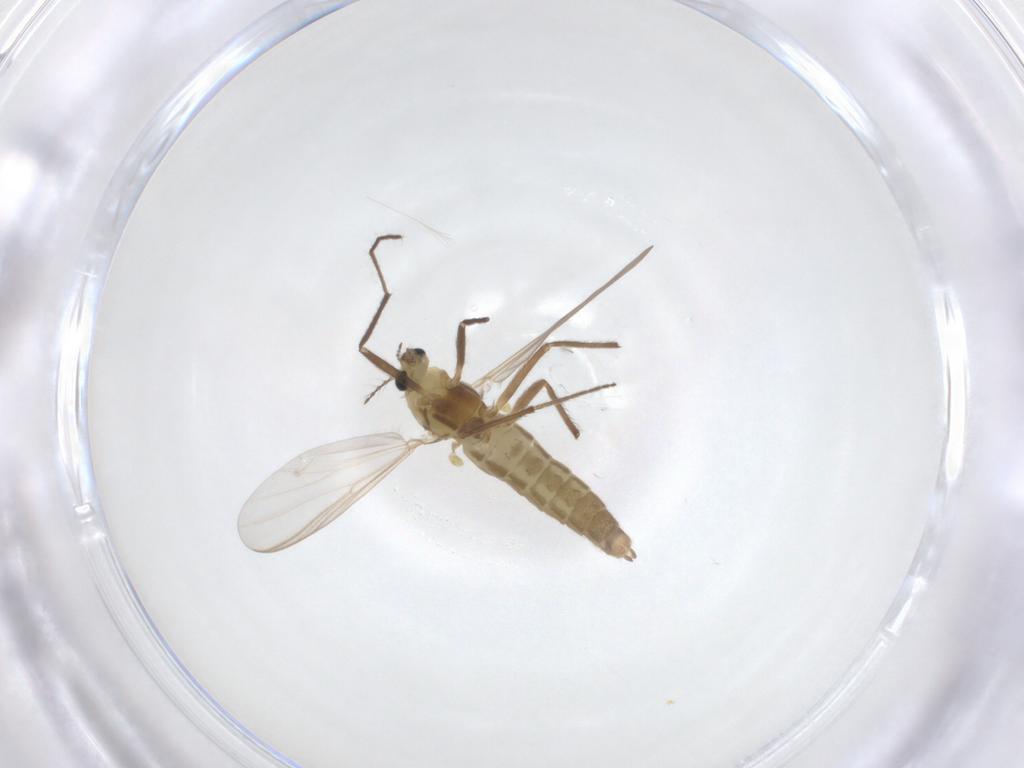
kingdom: Animalia
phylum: Arthropoda
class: Insecta
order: Diptera
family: Chironomidae
